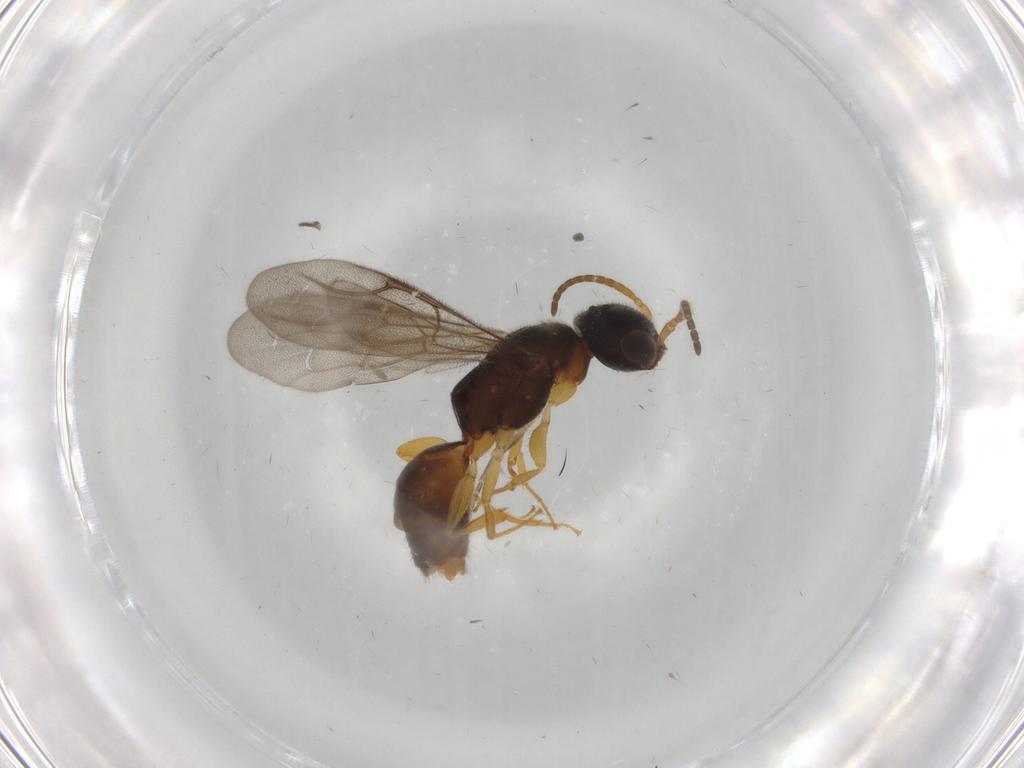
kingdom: Animalia
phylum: Arthropoda
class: Insecta
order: Hymenoptera
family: Bethylidae
